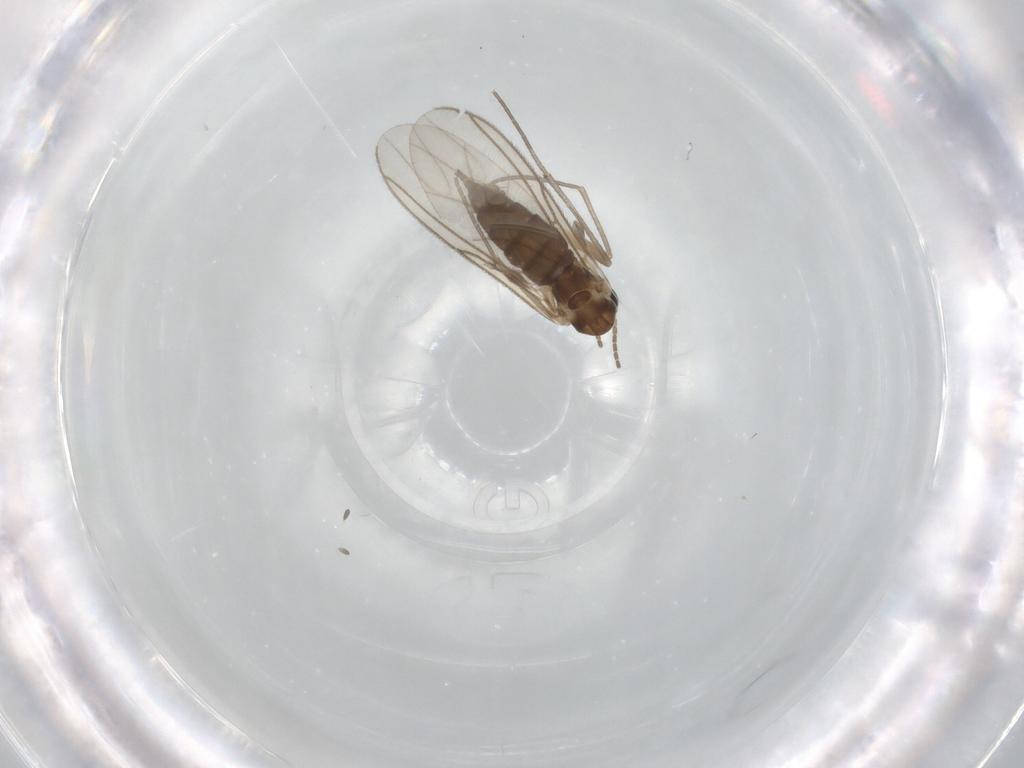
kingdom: Animalia
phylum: Arthropoda
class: Insecta
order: Diptera
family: Sciaridae
